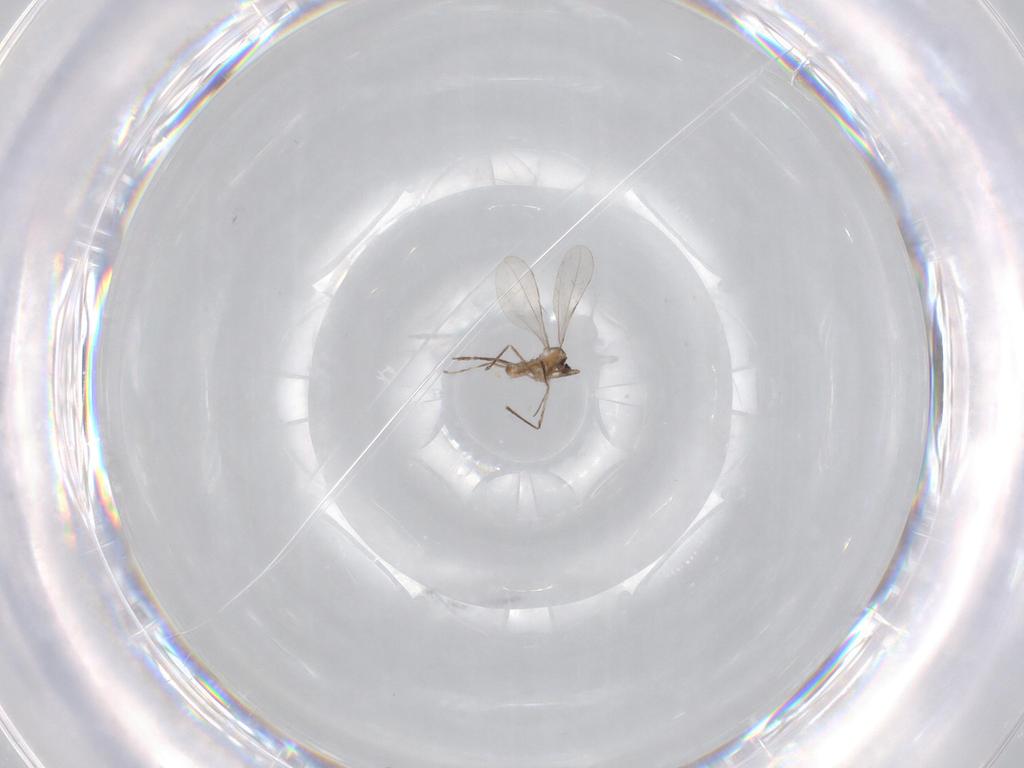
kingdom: Animalia
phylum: Arthropoda
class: Insecta
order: Diptera
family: Cecidomyiidae
